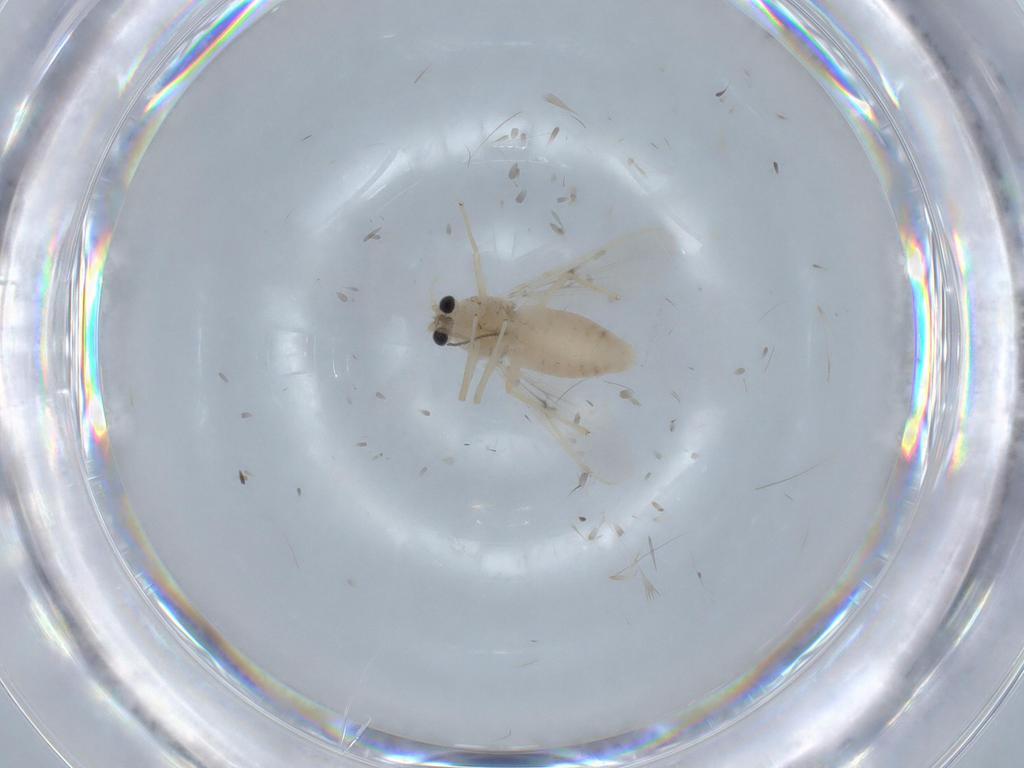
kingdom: Animalia
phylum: Arthropoda
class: Insecta
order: Diptera
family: Chironomidae
